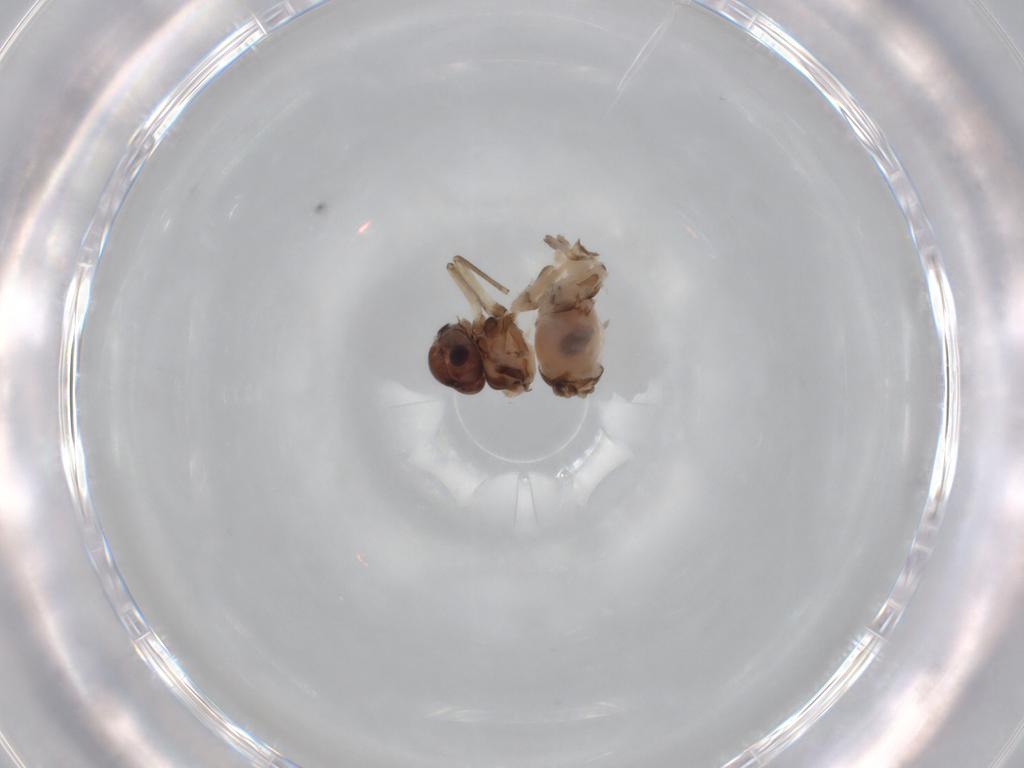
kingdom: Animalia
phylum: Arthropoda
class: Insecta
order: Psocodea
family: Peripsocidae
